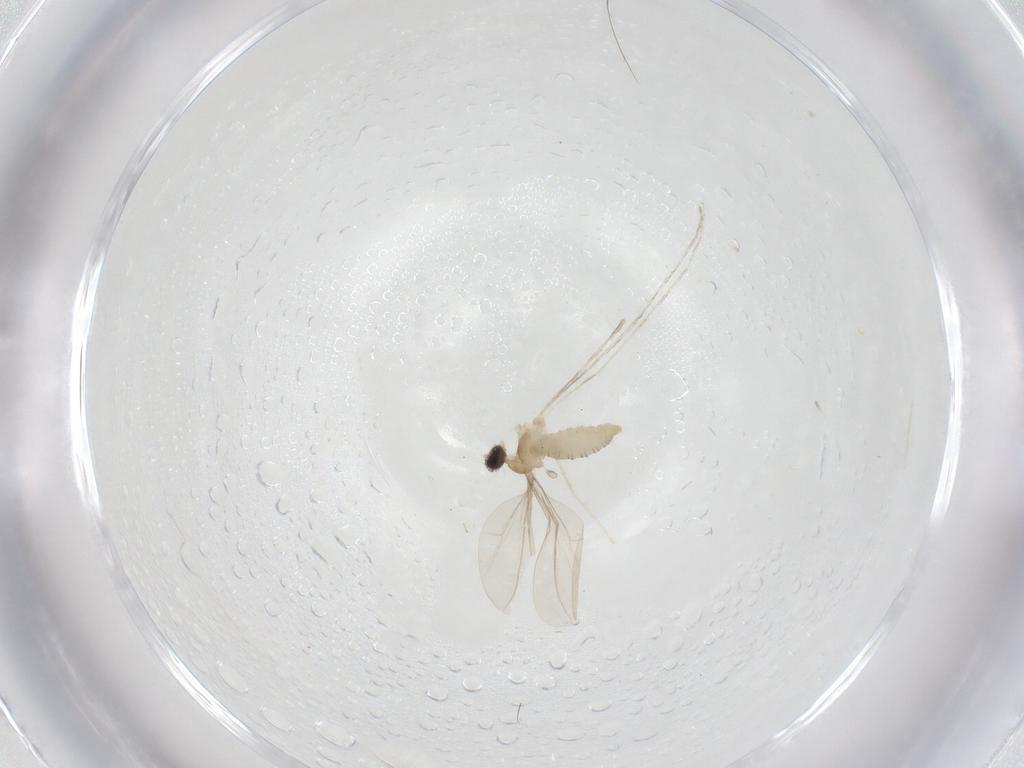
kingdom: Animalia
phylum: Arthropoda
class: Insecta
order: Diptera
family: Cecidomyiidae
